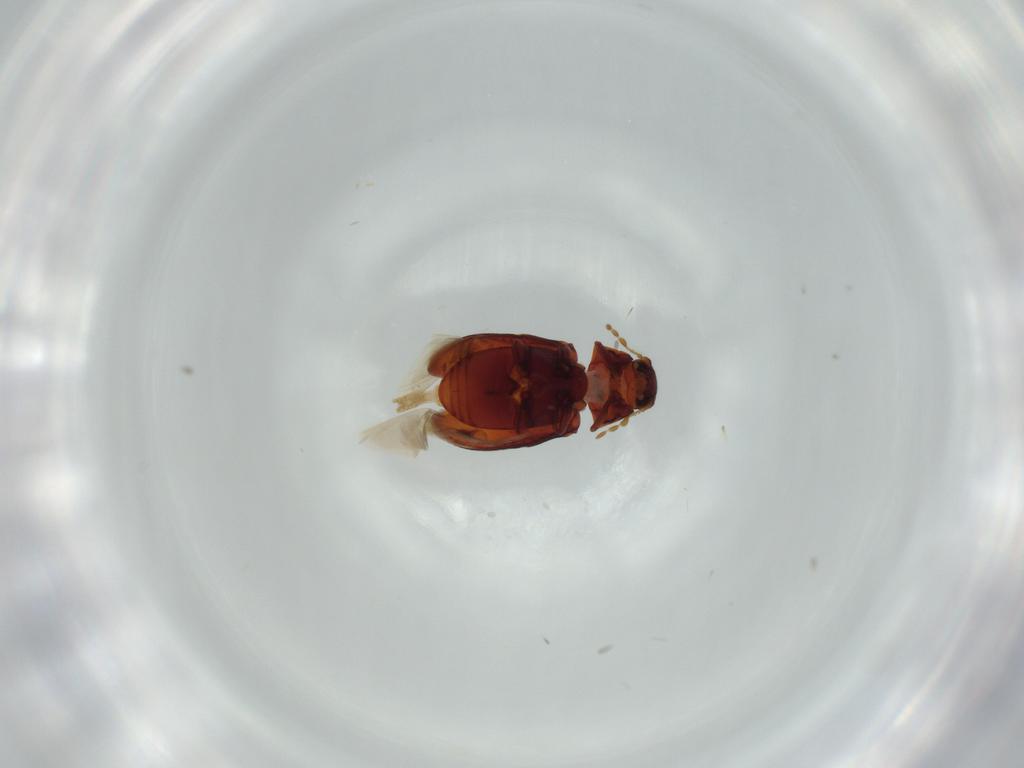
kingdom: Animalia
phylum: Arthropoda
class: Insecta
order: Coleoptera
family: Ptinidae
